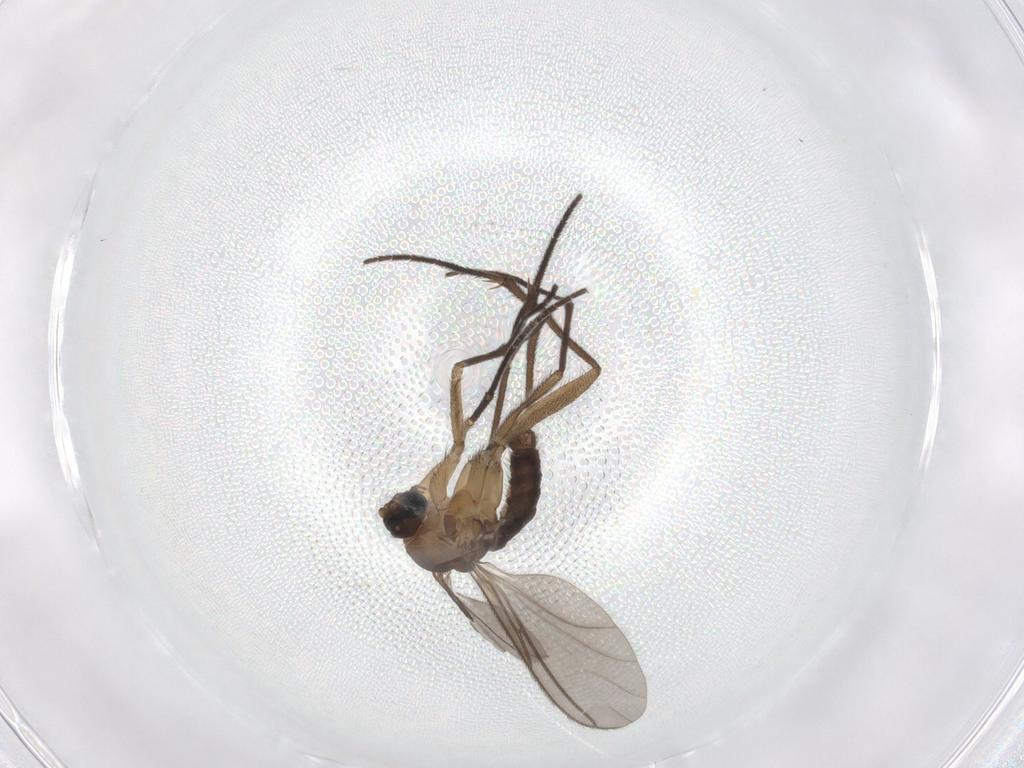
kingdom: Animalia
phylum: Arthropoda
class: Insecta
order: Diptera
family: Sciaridae
